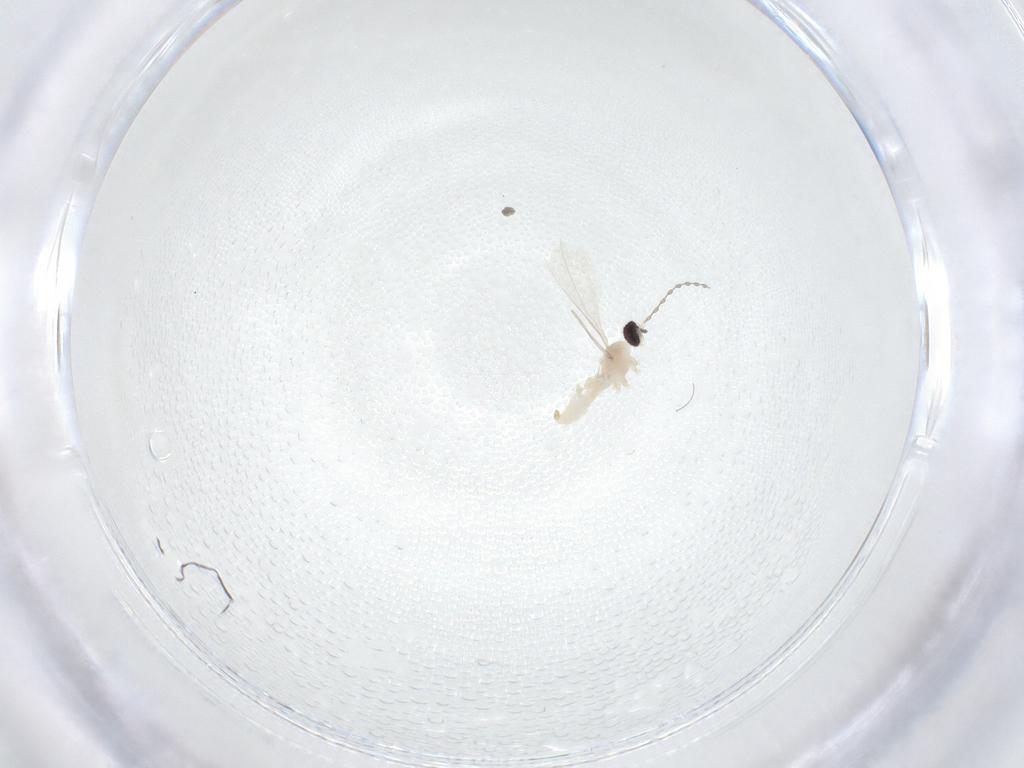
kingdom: Animalia
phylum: Arthropoda
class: Insecta
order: Diptera
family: Cecidomyiidae
